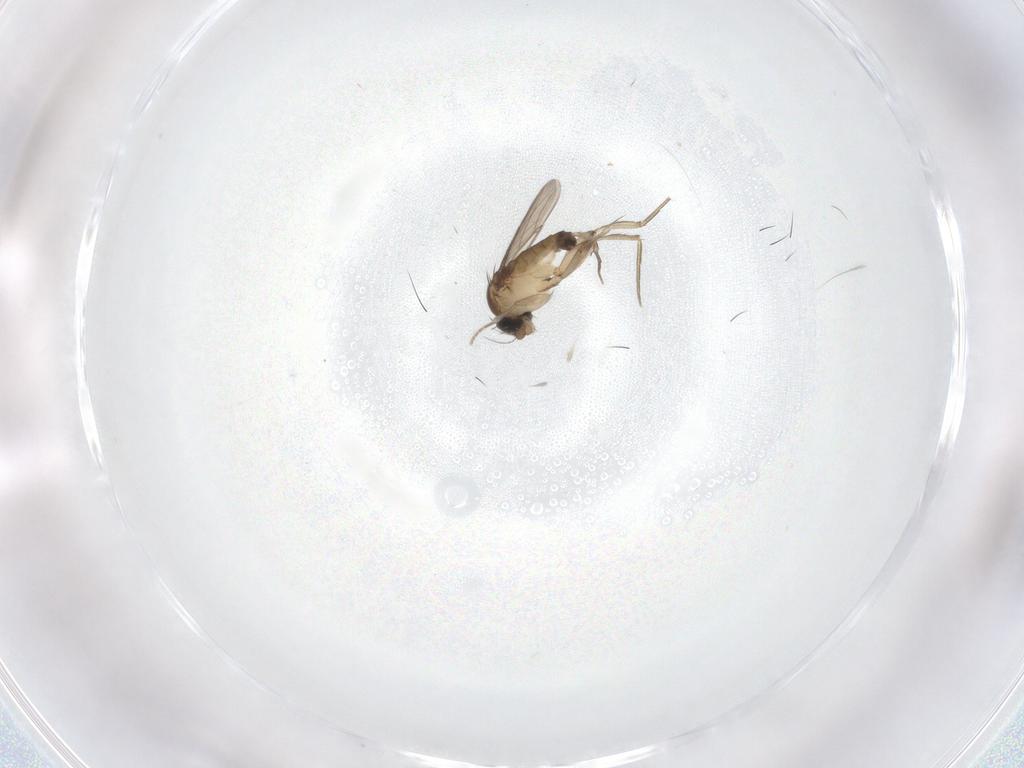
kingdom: Animalia
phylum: Arthropoda
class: Insecta
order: Diptera
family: Phoridae
